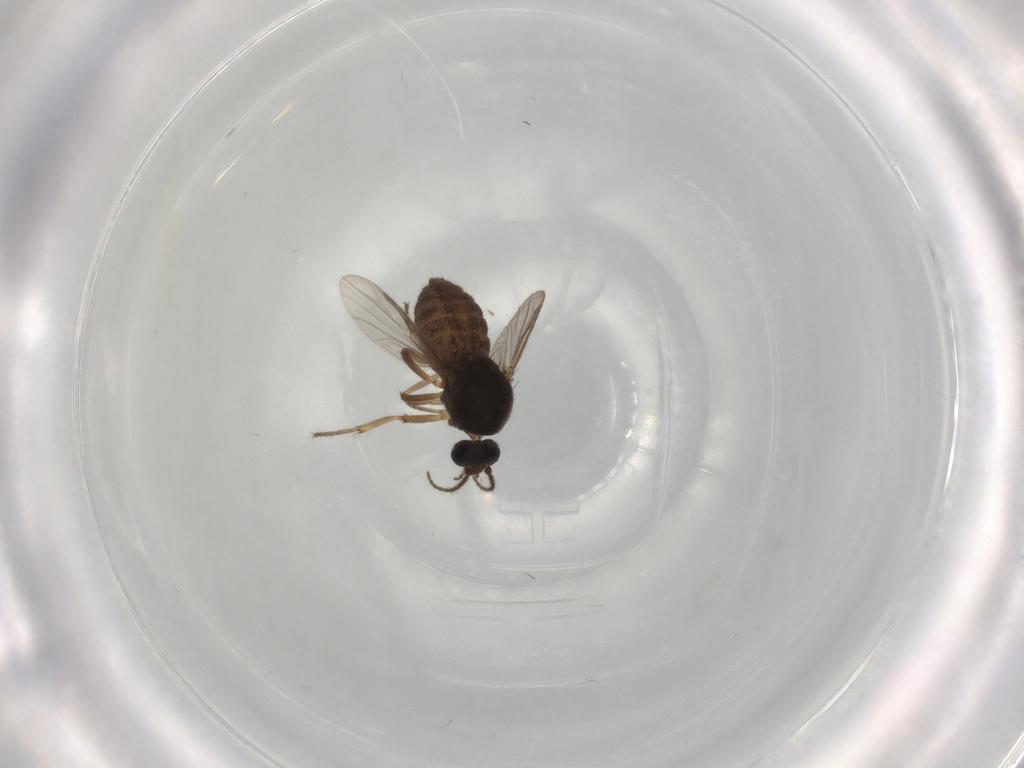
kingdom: Animalia
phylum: Arthropoda
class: Insecta
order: Diptera
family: Ceratopogonidae
